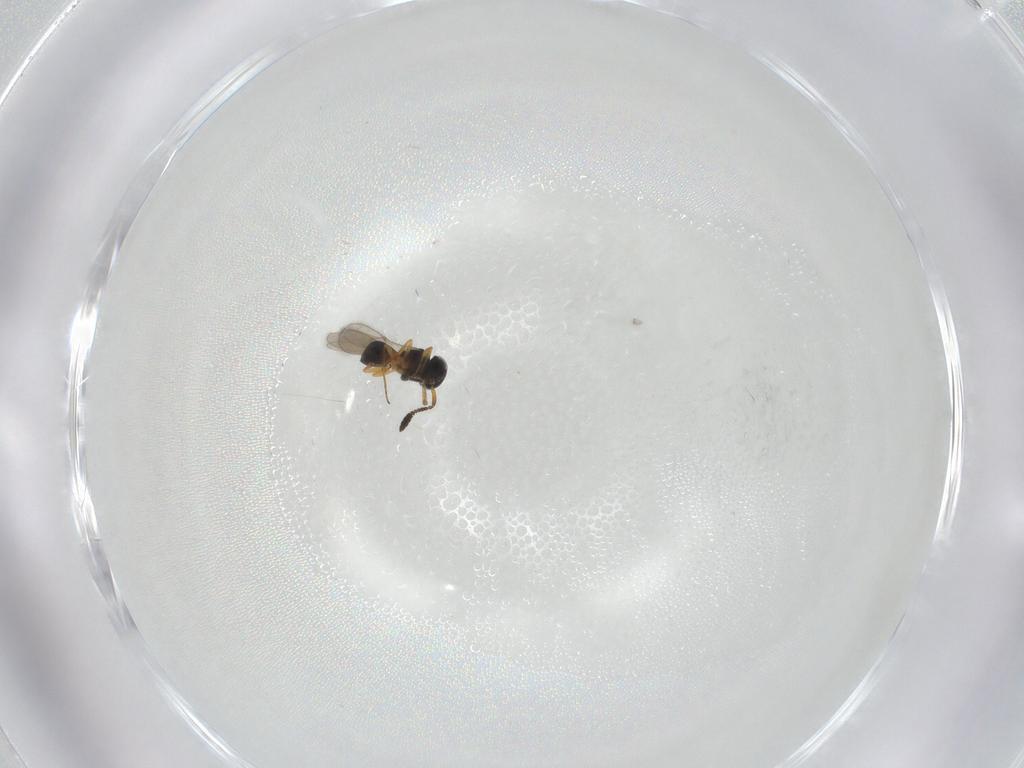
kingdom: Animalia
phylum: Arthropoda
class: Insecta
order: Hymenoptera
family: Scelionidae
